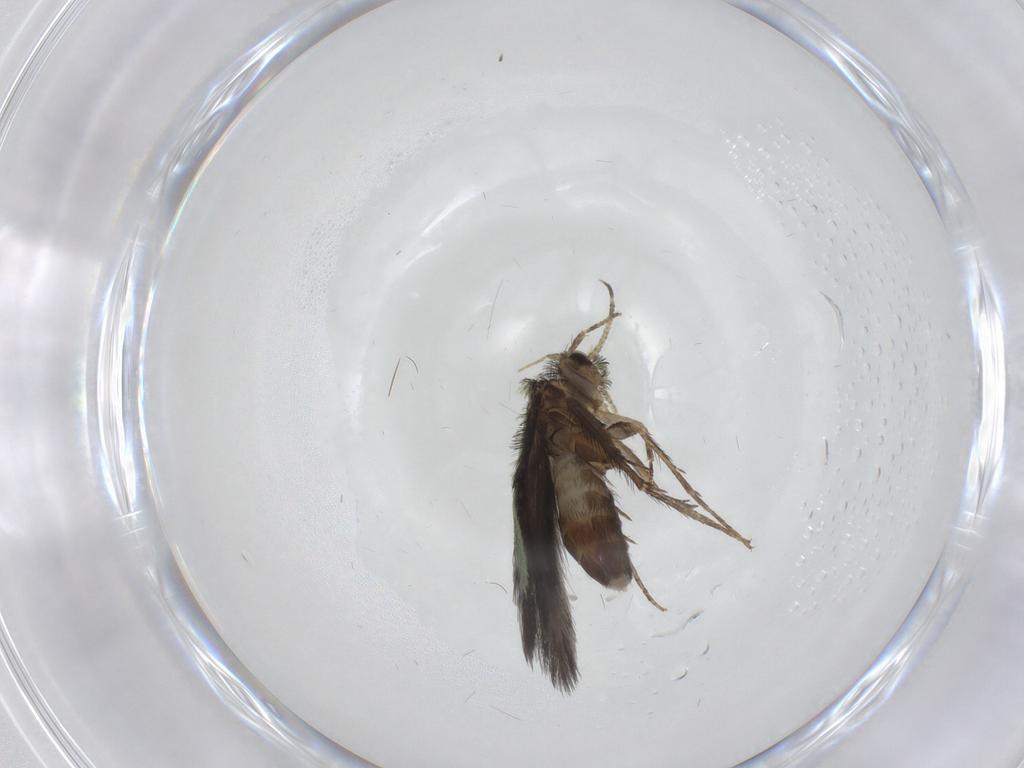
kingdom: Animalia
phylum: Arthropoda
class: Insecta
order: Trichoptera
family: Hydroptilidae
